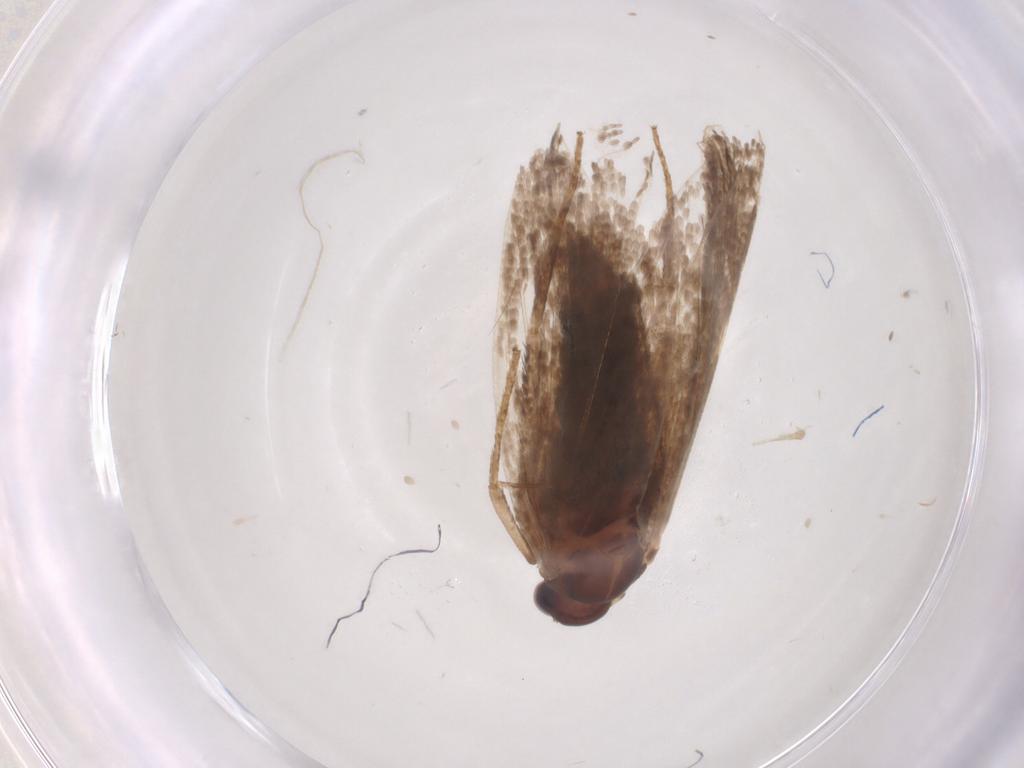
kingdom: Animalia
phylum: Arthropoda
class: Insecta
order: Lepidoptera
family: Oecophoridae
